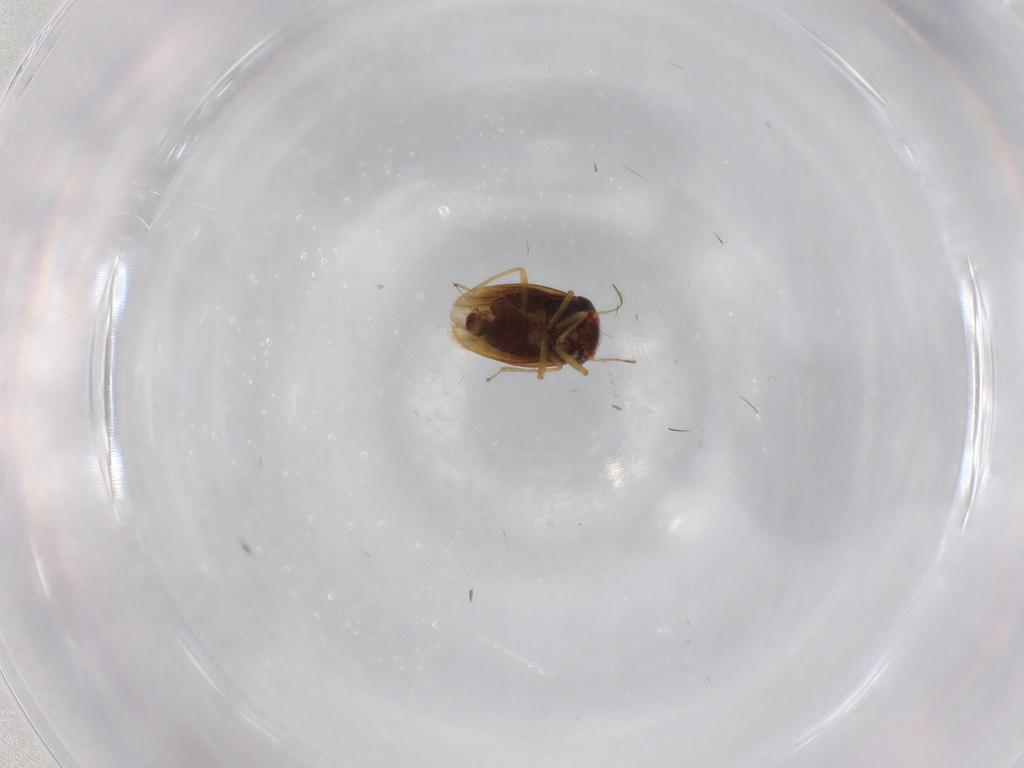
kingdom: Animalia
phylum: Arthropoda
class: Insecta
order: Hemiptera
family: Schizopteridae
